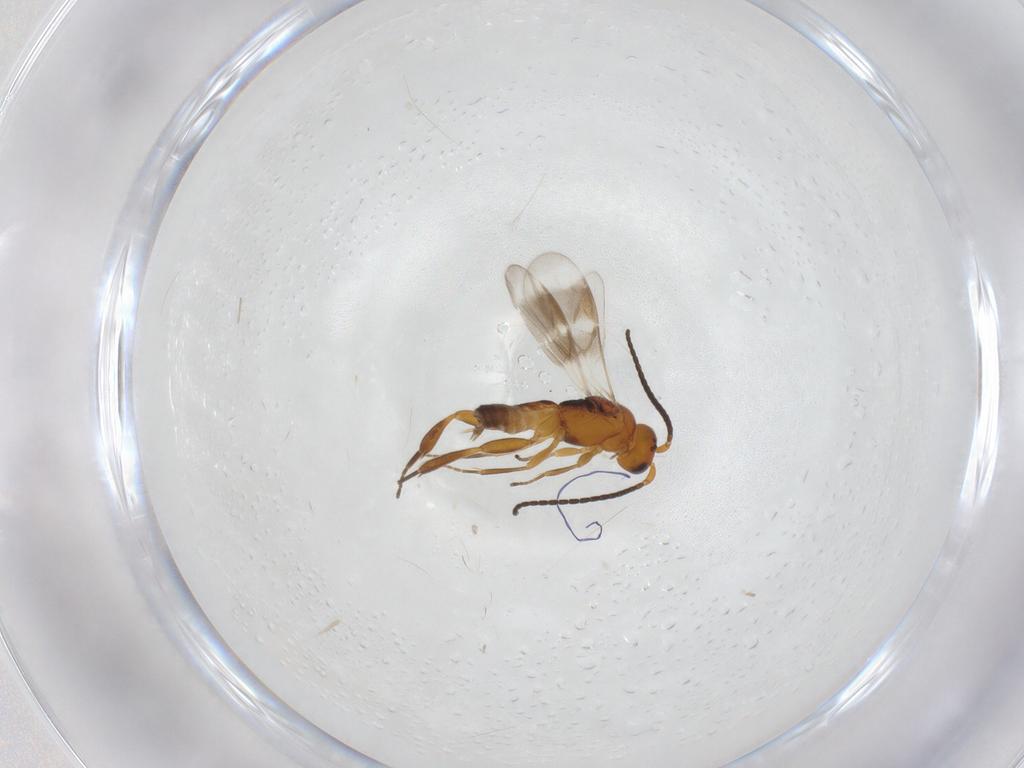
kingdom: Animalia
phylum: Arthropoda
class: Insecta
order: Hymenoptera
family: Braconidae
